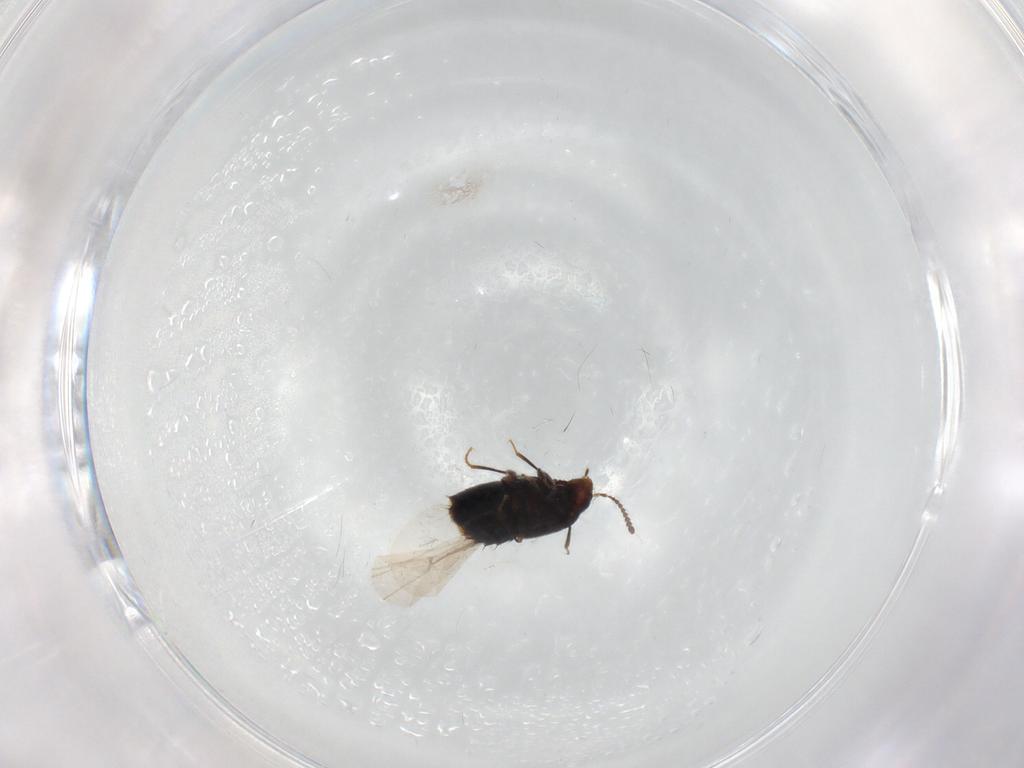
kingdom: Animalia
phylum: Arthropoda
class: Insecta
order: Coleoptera
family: Staphylinidae
